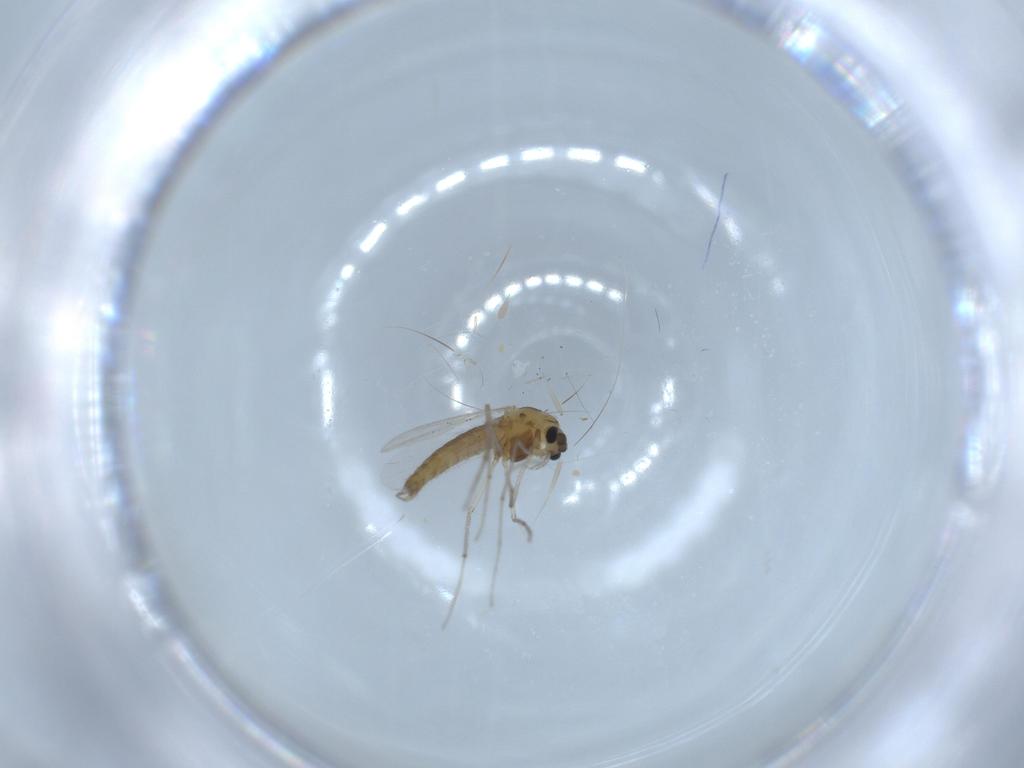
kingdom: Animalia
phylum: Arthropoda
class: Insecta
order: Diptera
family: Chironomidae
